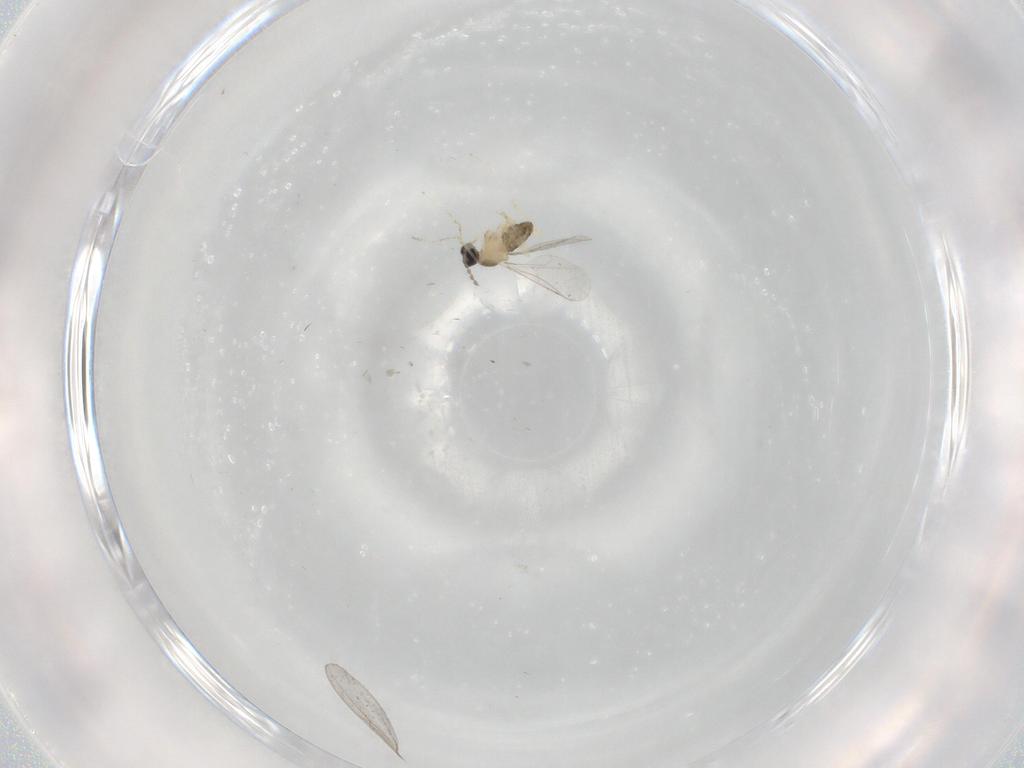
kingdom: Animalia
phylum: Arthropoda
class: Insecta
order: Diptera
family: Cecidomyiidae
